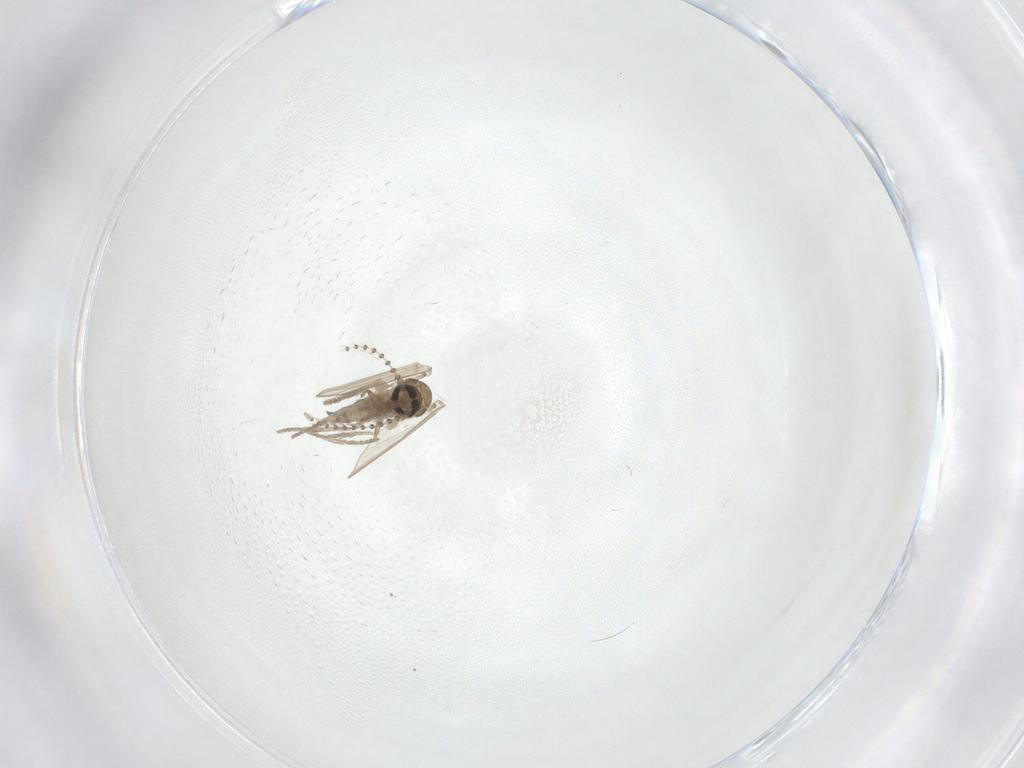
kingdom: Animalia
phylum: Arthropoda
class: Insecta
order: Diptera
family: Psychodidae
